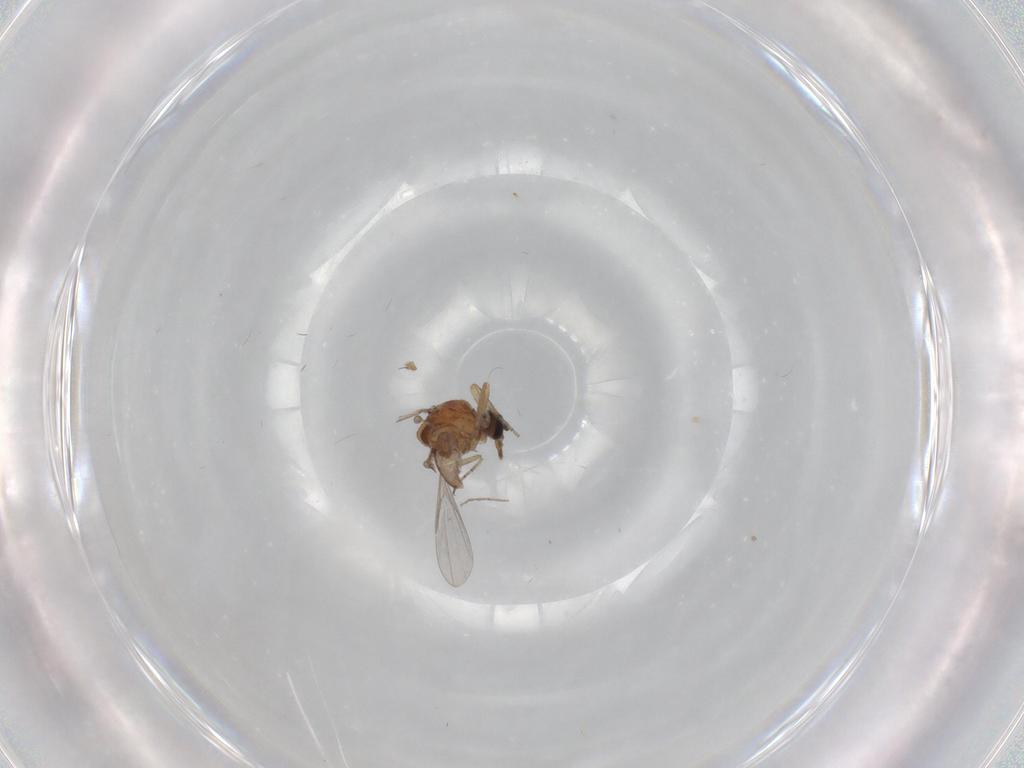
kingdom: Animalia
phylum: Arthropoda
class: Insecta
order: Diptera
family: Ceratopogonidae
